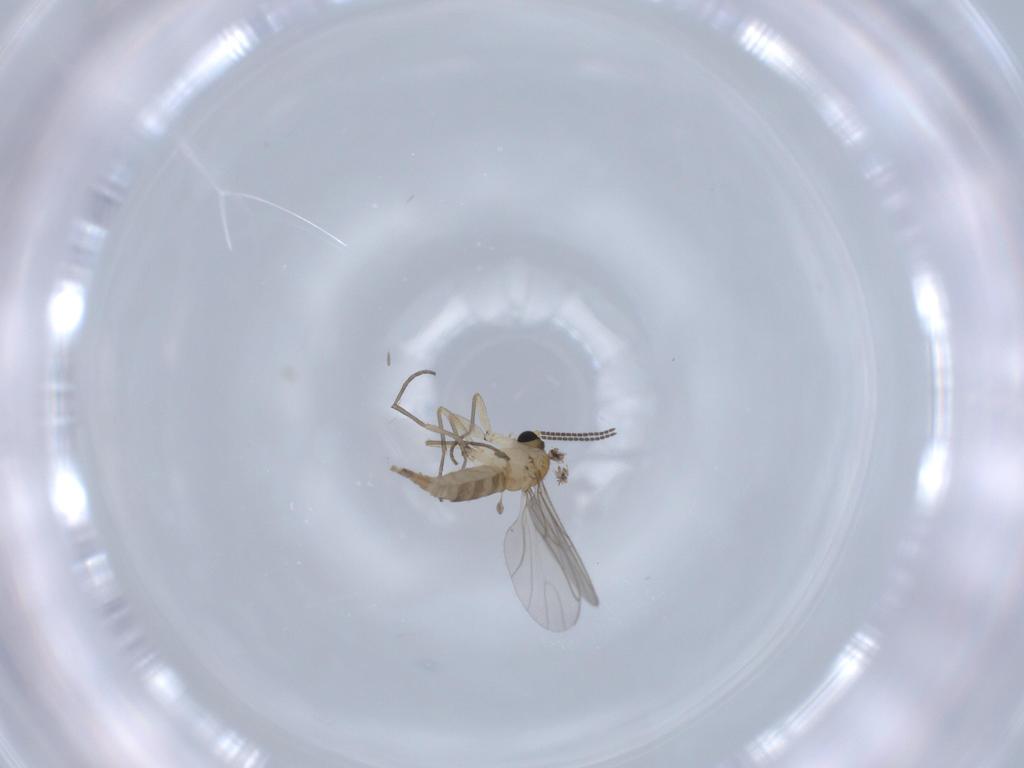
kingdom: Animalia
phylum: Arthropoda
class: Insecta
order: Diptera
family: Sciaridae
